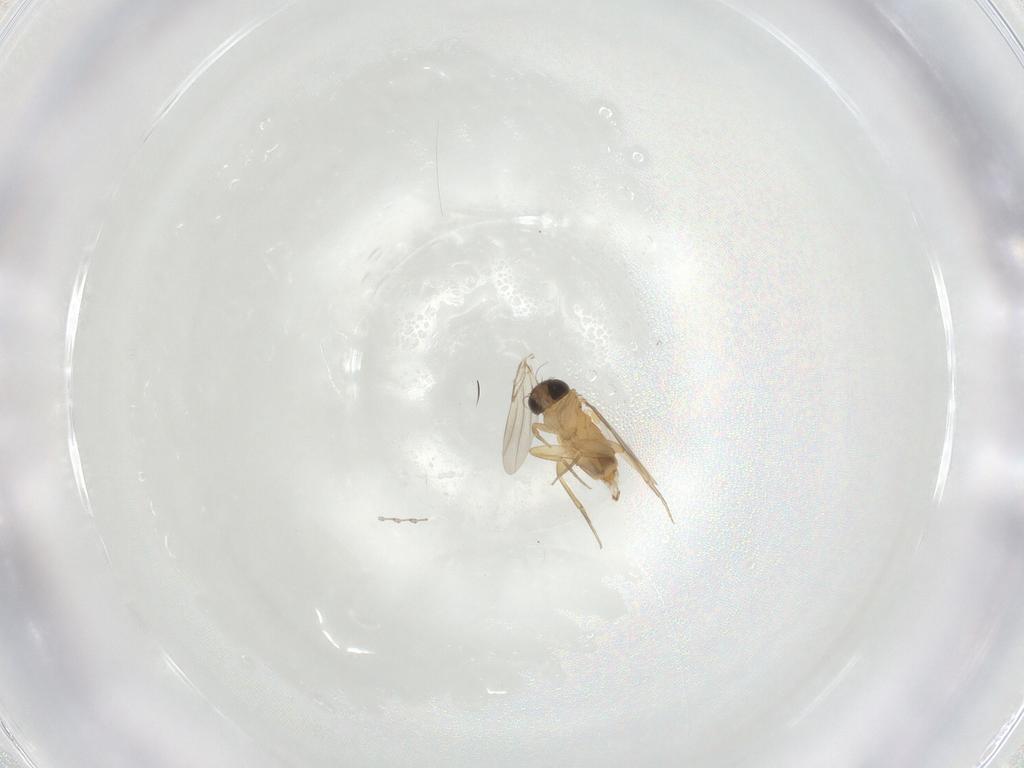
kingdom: Animalia
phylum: Arthropoda
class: Insecta
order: Diptera
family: Phoridae
